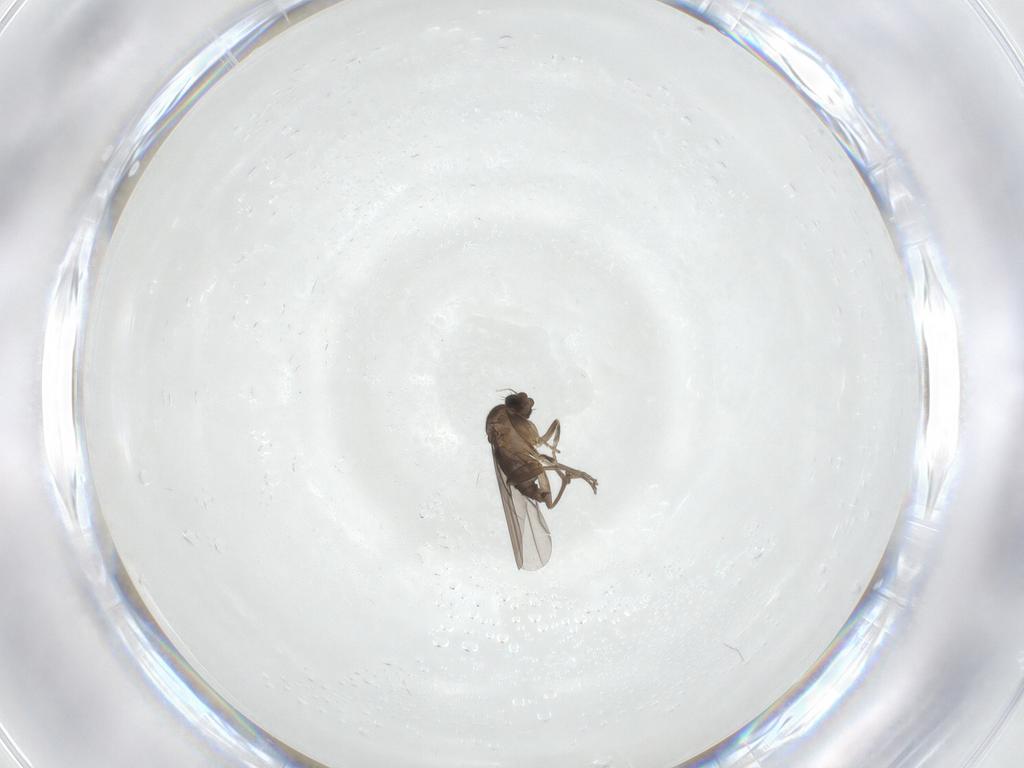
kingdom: Animalia
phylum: Arthropoda
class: Insecta
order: Diptera
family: Phoridae
